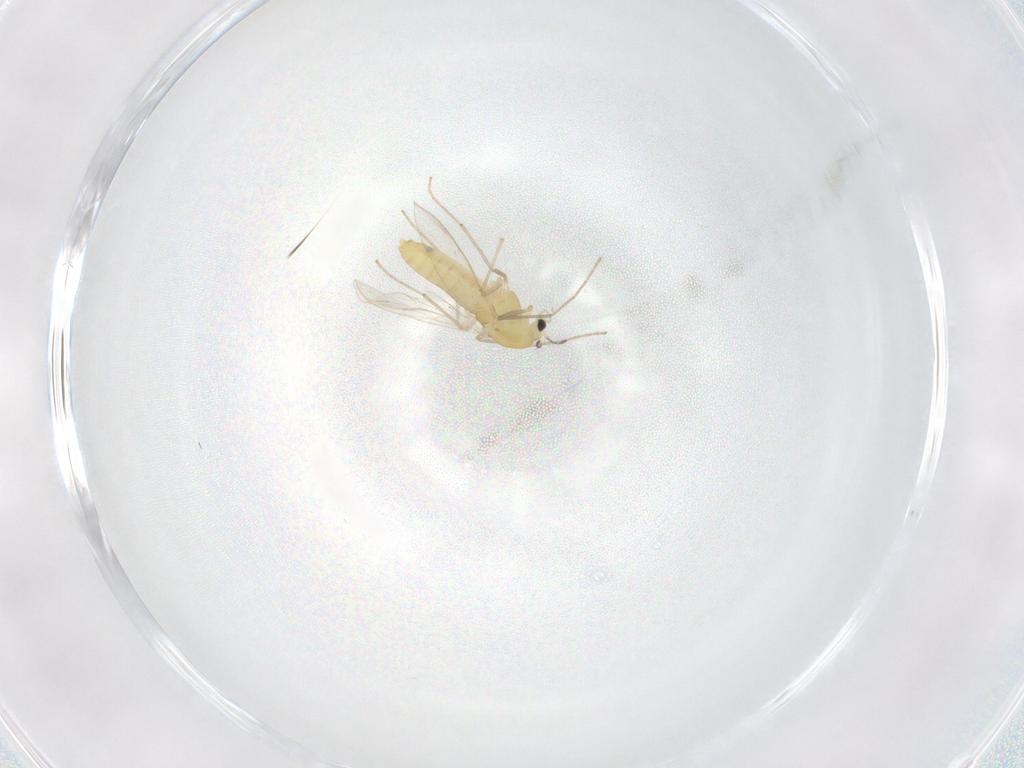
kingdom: Animalia
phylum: Arthropoda
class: Insecta
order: Diptera
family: Chironomidae
